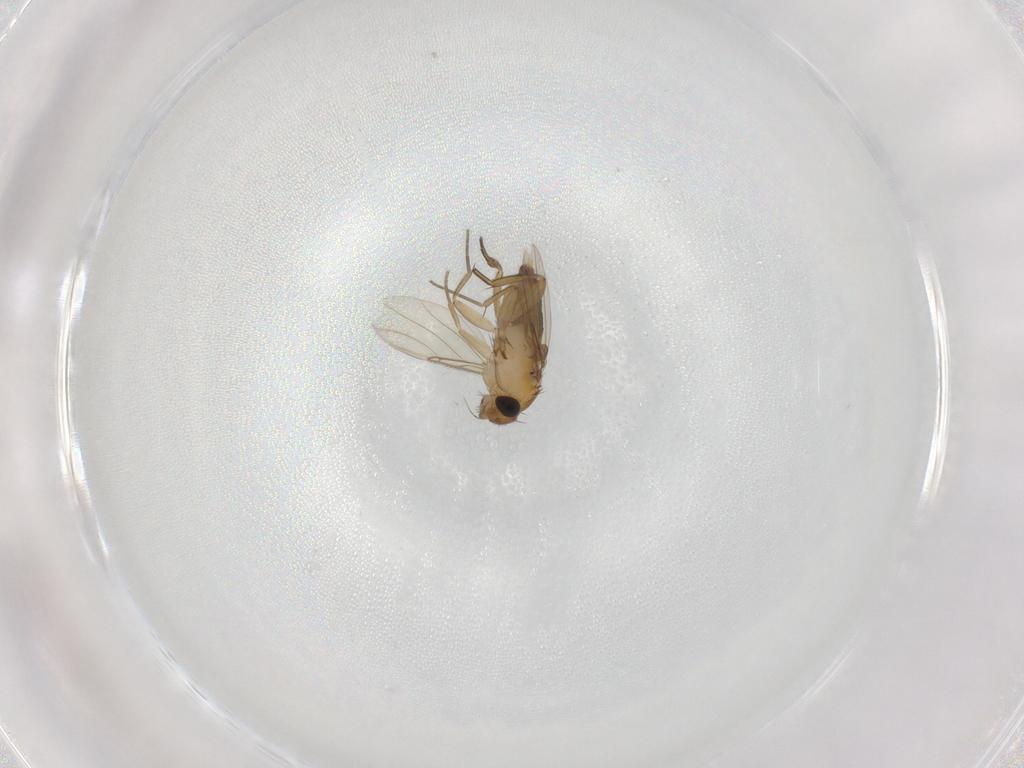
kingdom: Animalia
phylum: Arthropoda
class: Insecta
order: Diptera
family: Phoridae
